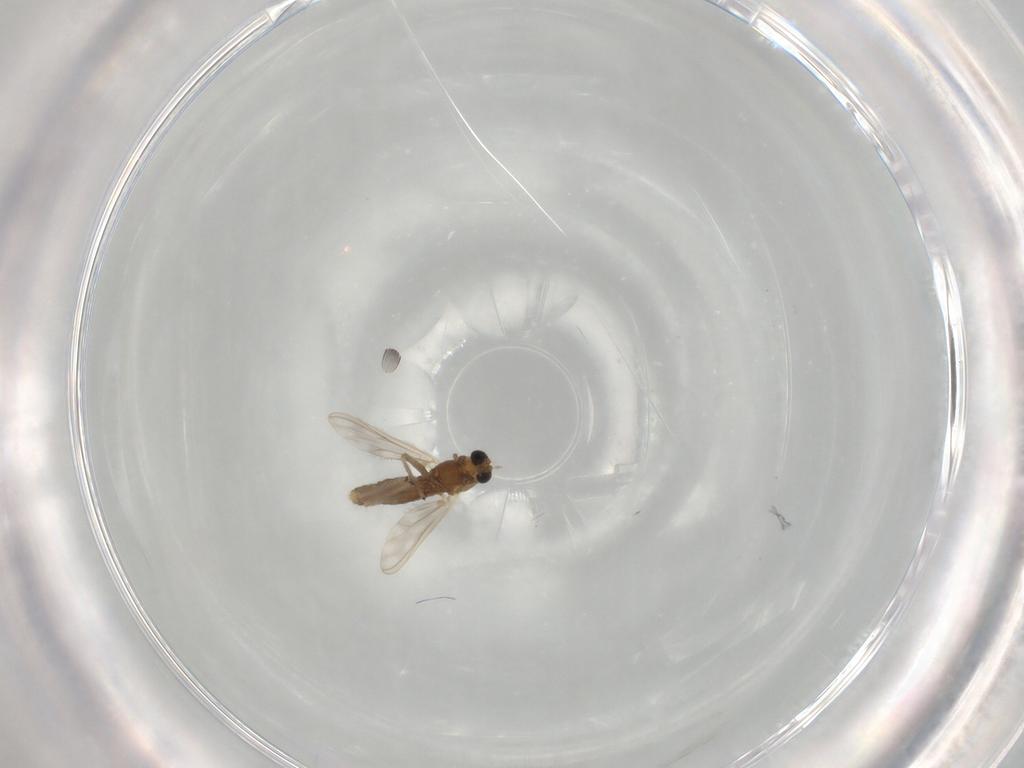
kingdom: Animalia
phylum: Arthropoda
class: Insecta
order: Diptera
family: Chironomidae
